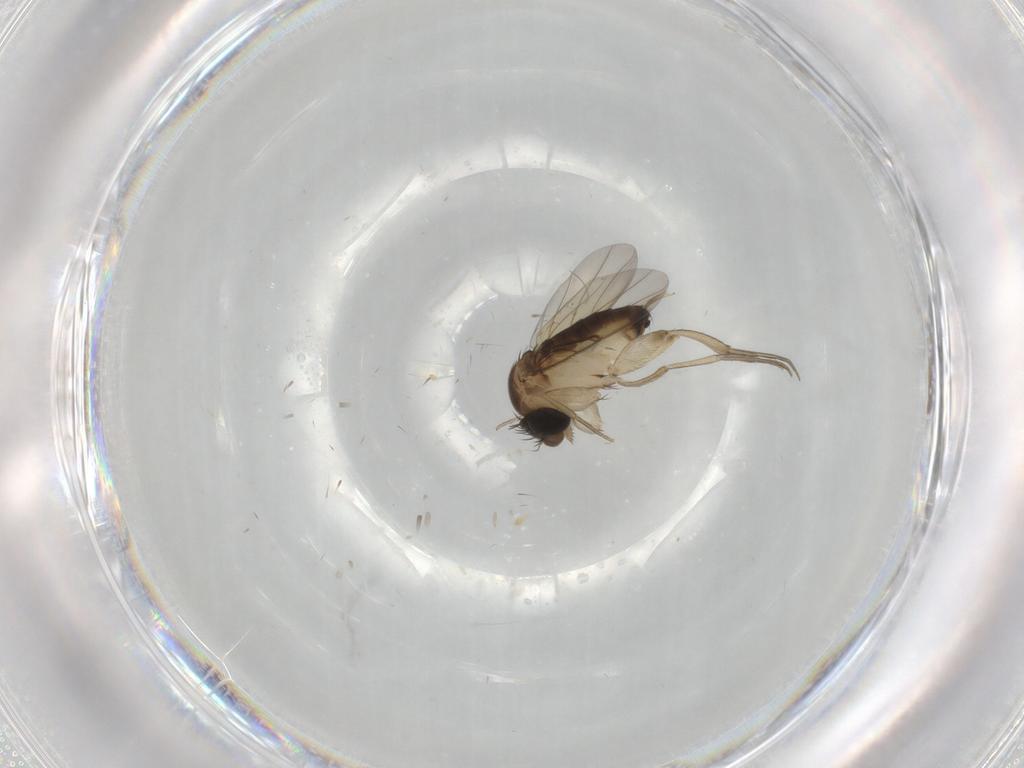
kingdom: Animalia
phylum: Arthropoda
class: Insecta
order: Diptera
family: Phoridae
